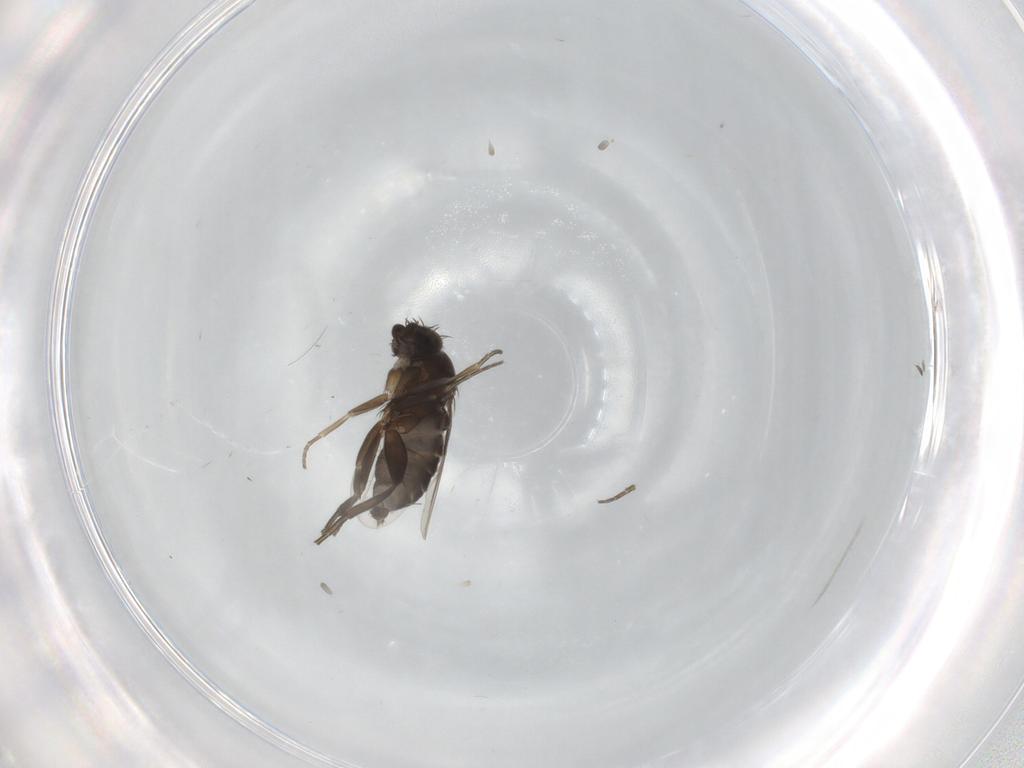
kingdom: Animalia
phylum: Arthropoda
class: Insecta
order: Diptera
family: Phoridae
